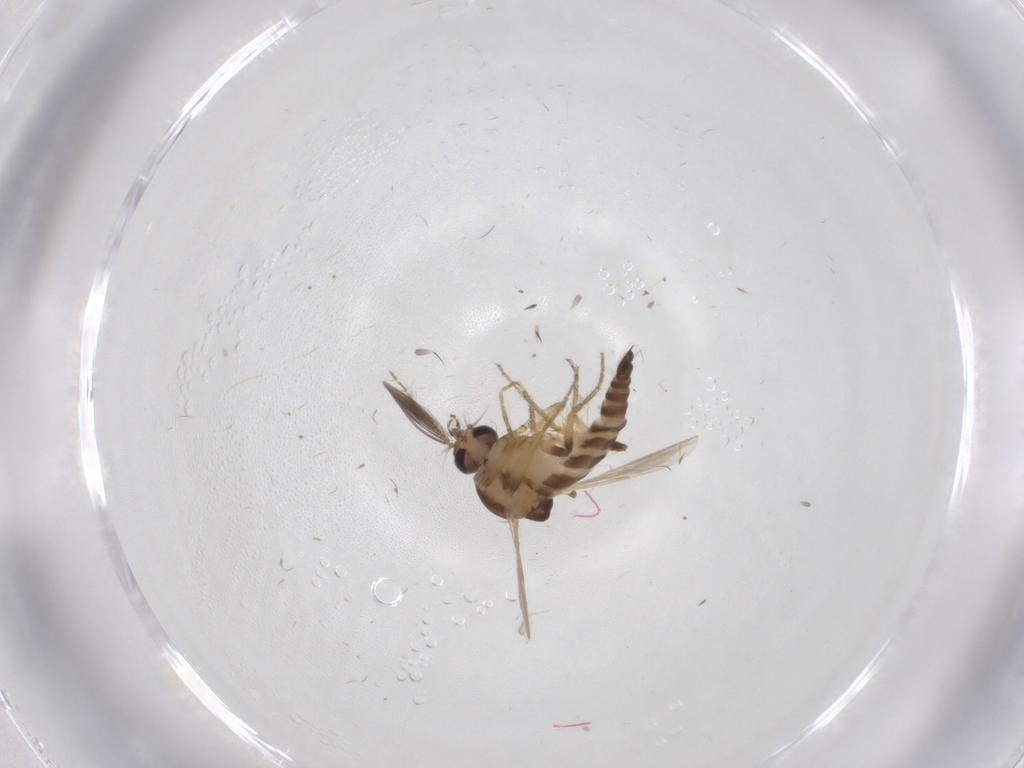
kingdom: Animalia
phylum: Arthropoda
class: Insecta
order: Diptera
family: Ceratopogonidae
